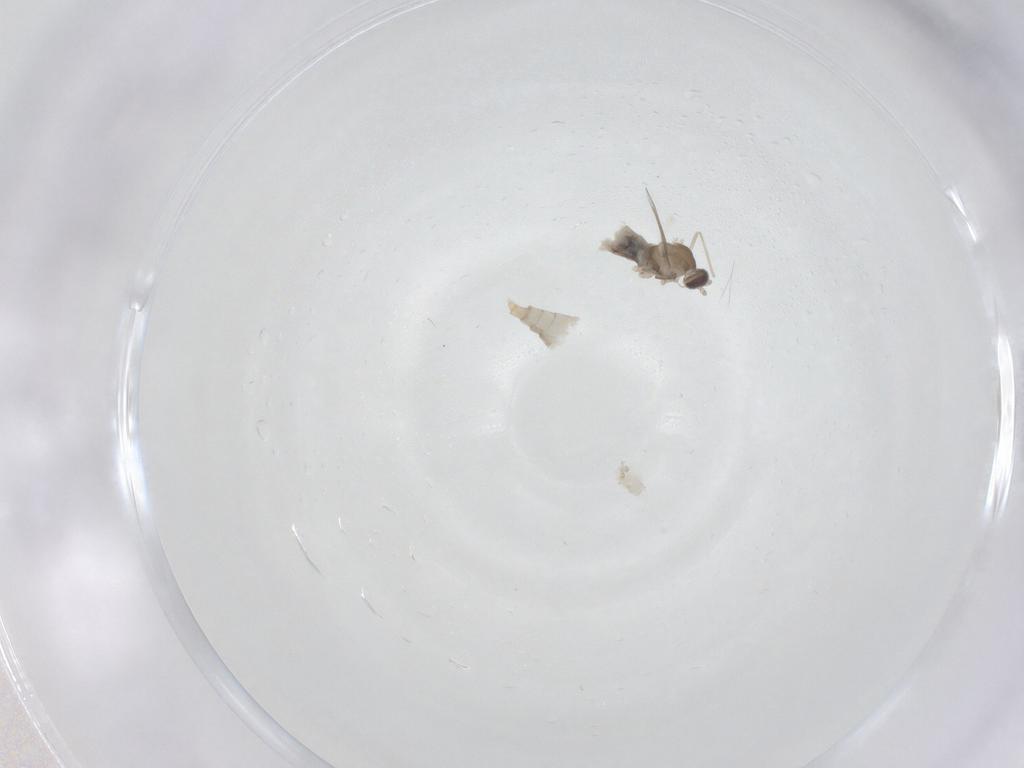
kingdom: Animalia
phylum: Arthropoda
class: Insecta
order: Diptera
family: Cecidomyiidae
